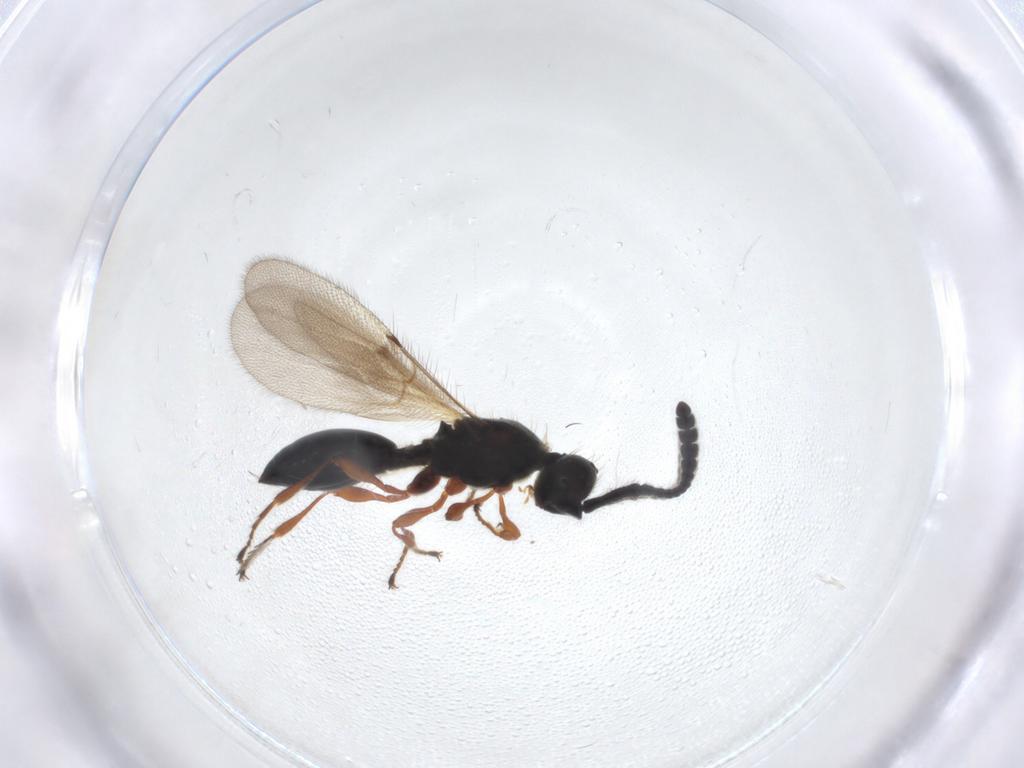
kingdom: Animalia
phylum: Arthropoda
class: Insecta
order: Hymenoptera
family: Diapriidae
